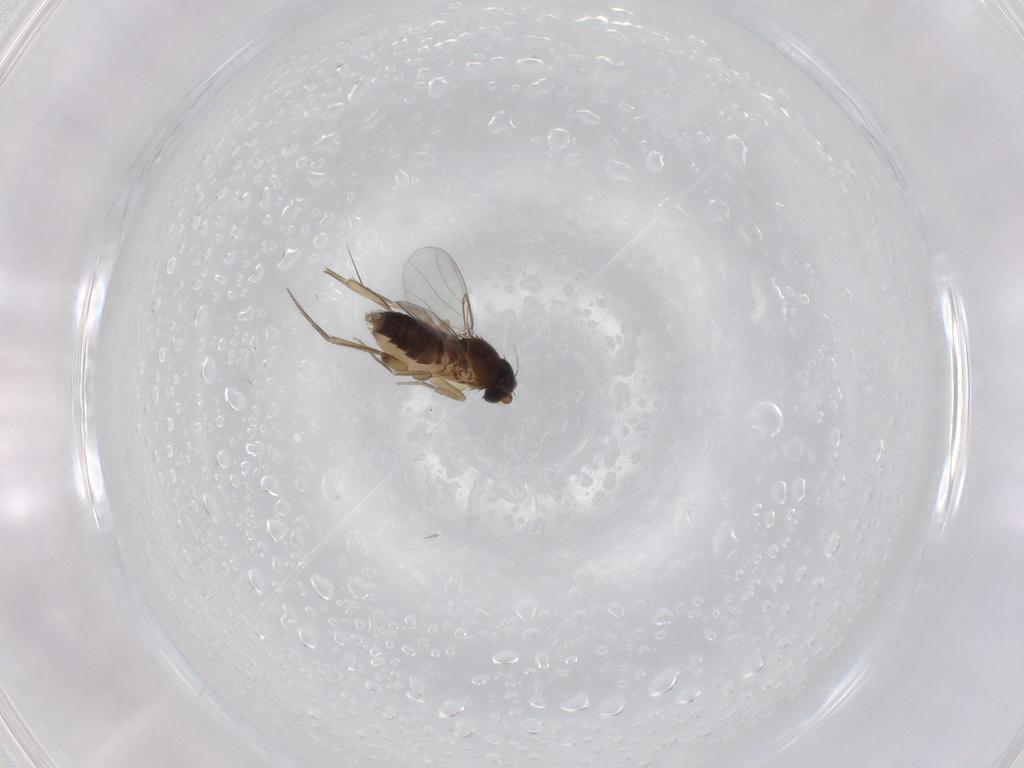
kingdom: Animalia
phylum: Arthropoda
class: Insecta
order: Diptera
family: Phoridae
